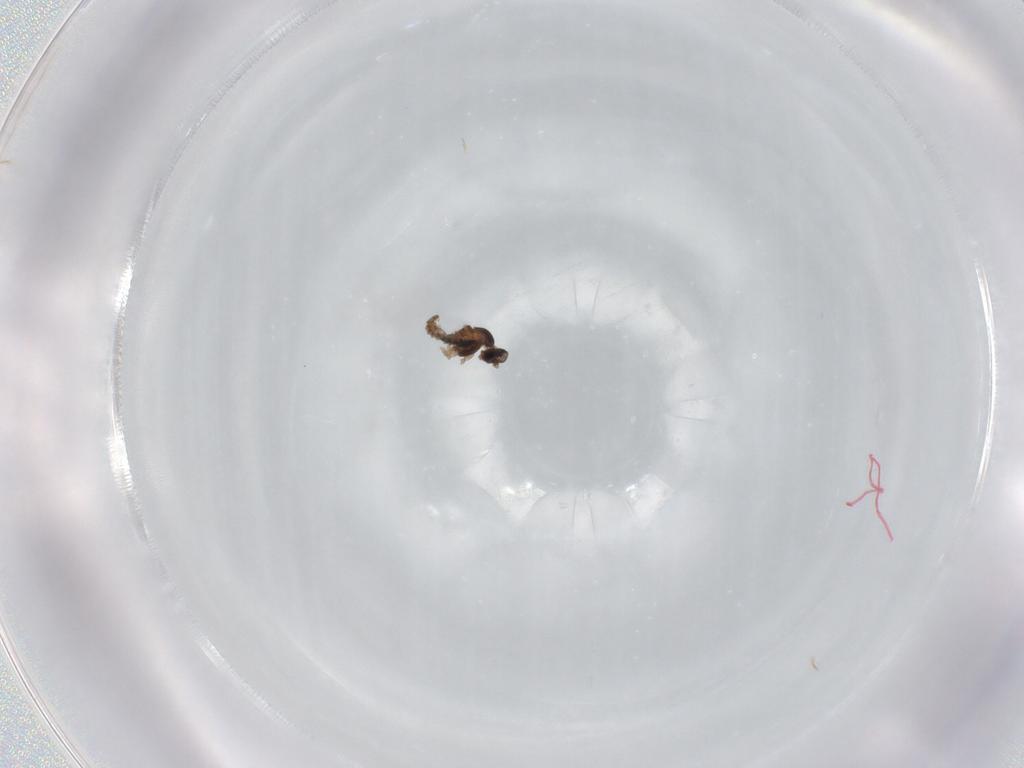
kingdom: Animalia
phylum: Arthropoda
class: Insecta
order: Diptera
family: Cecidomyiidae
